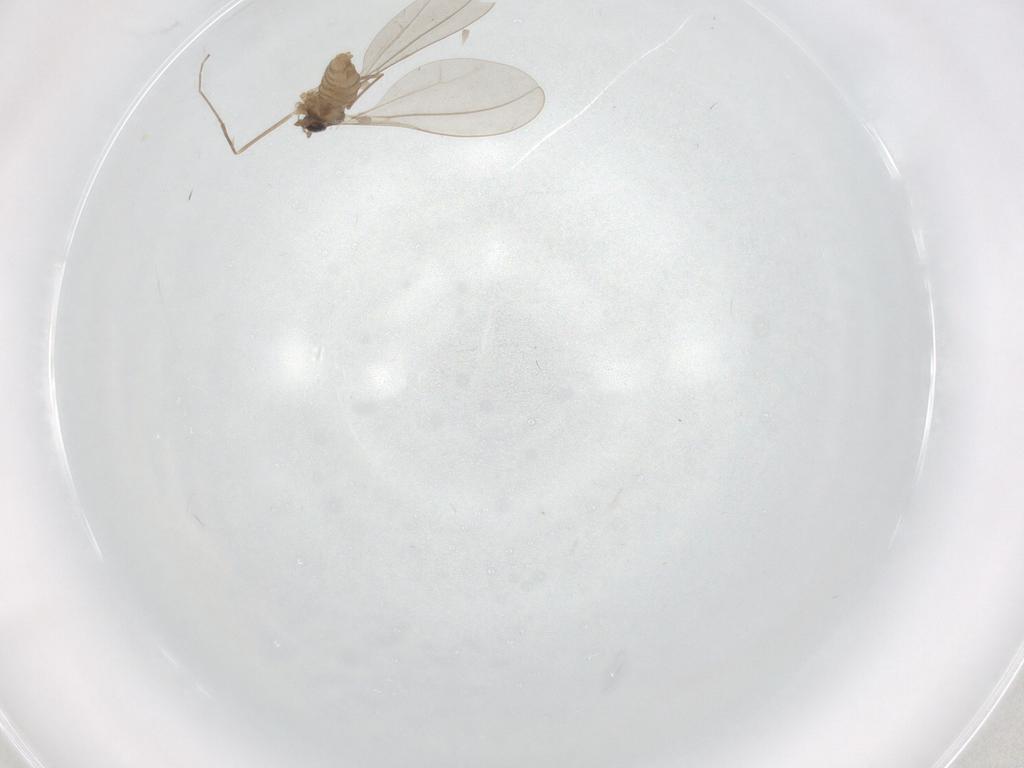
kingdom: Animalia
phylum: Arthropoda
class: Insecta
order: Diptera
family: Cecidomyiidae
